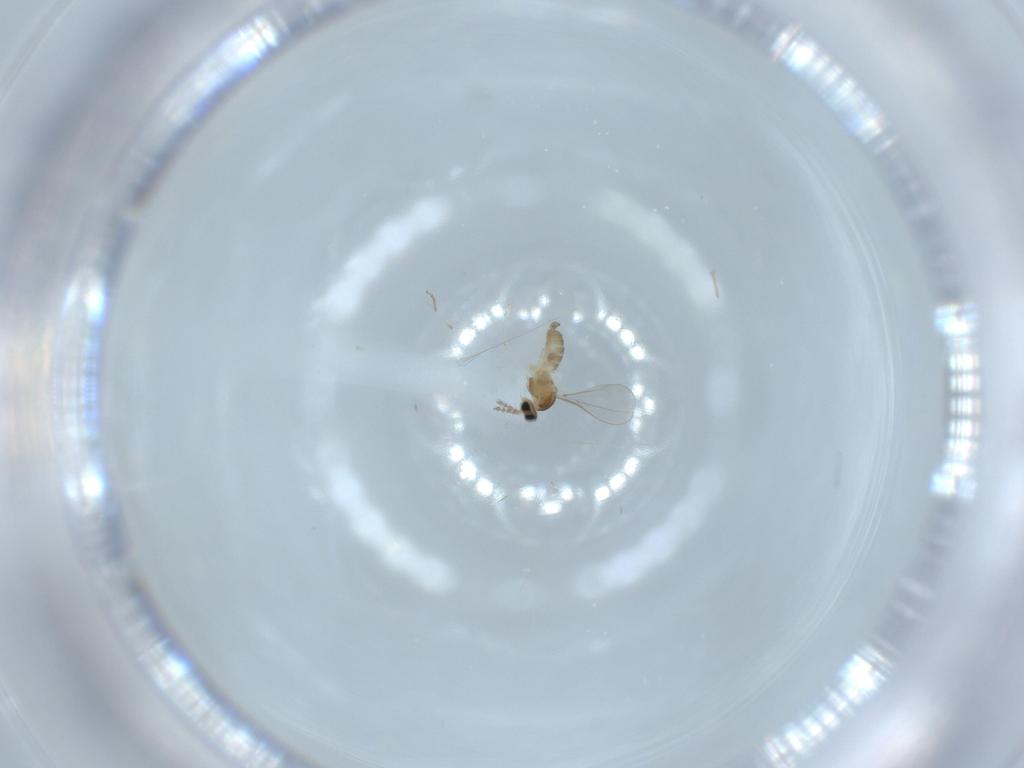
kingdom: Animalia
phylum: Arthropoda
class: Insecta
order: Diptera
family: Cecidomyiidae
